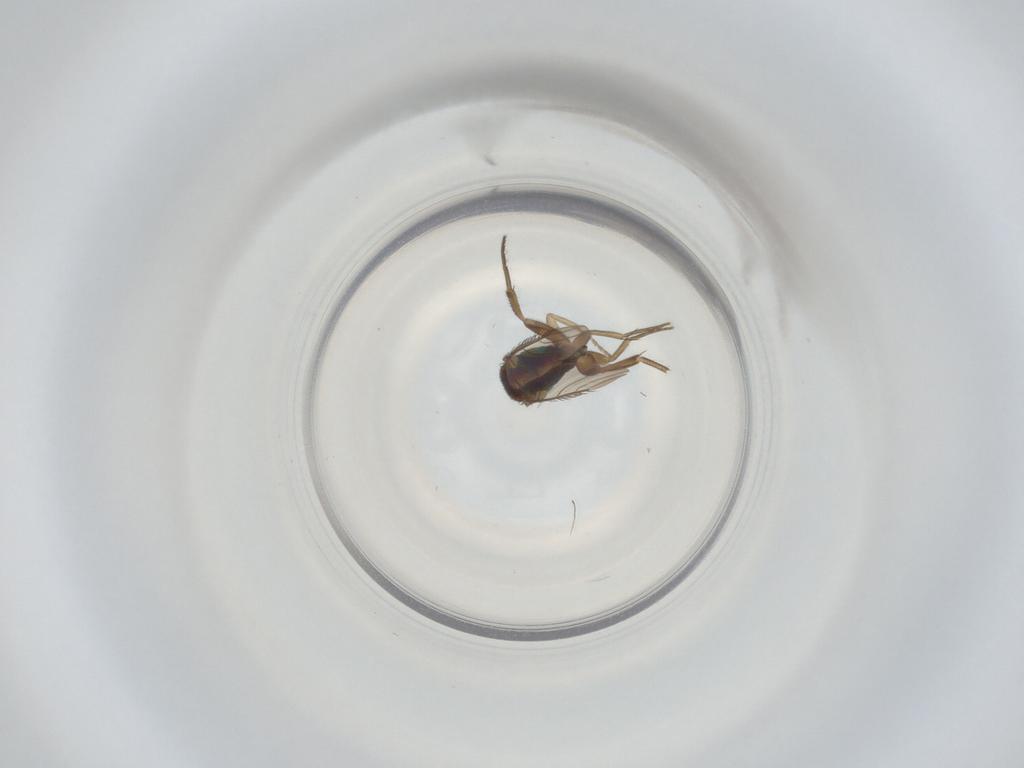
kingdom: Animalia
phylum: Arthropoda
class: Insecta
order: Diptera
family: Phoridae
